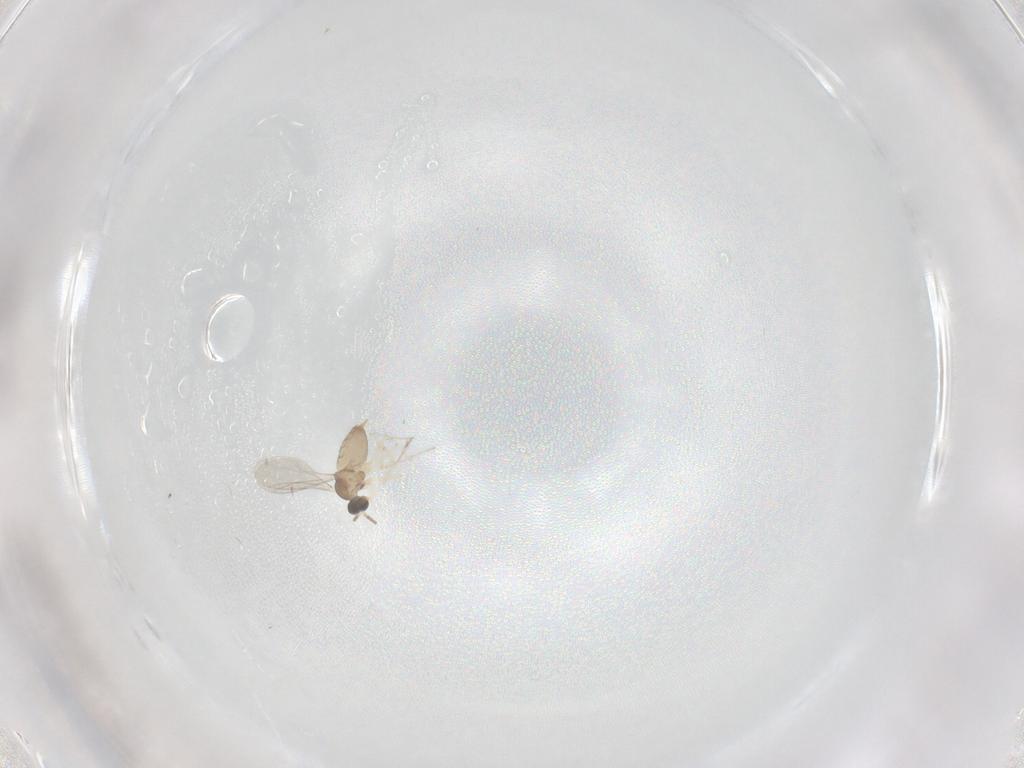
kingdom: Animalia
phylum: Arthropoda
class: Insecta
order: Diptera
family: Cecidomyiidae
